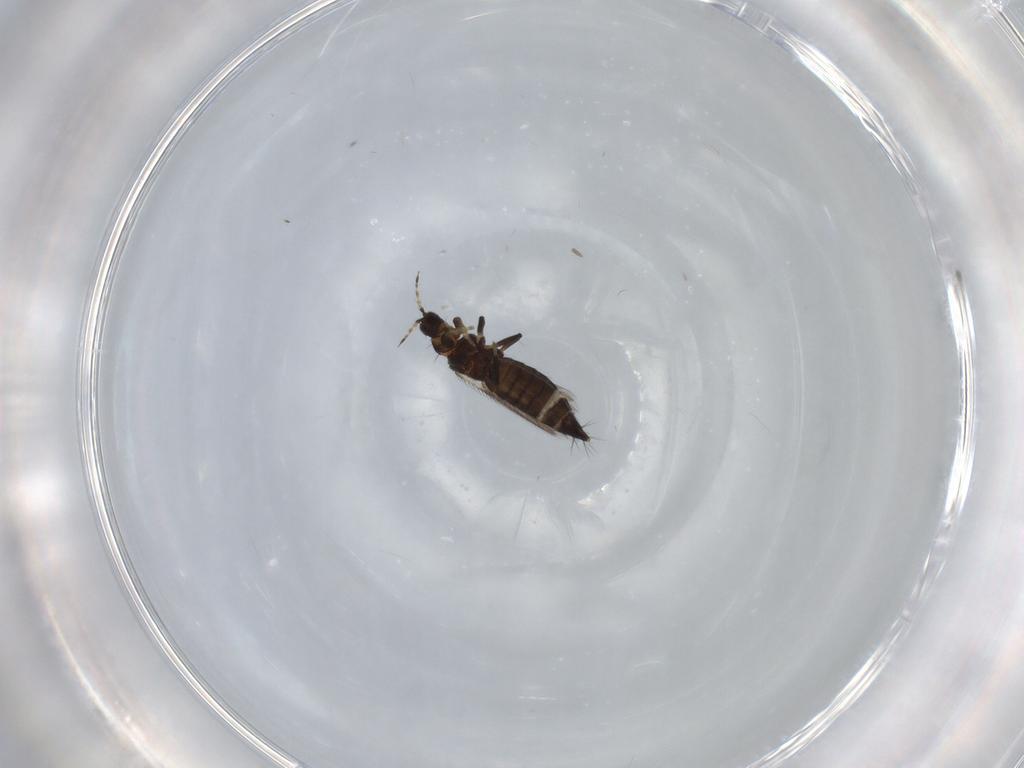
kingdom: Animalia
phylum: Arthropoda
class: Insecta
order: Thysanoptera
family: Thripidae
